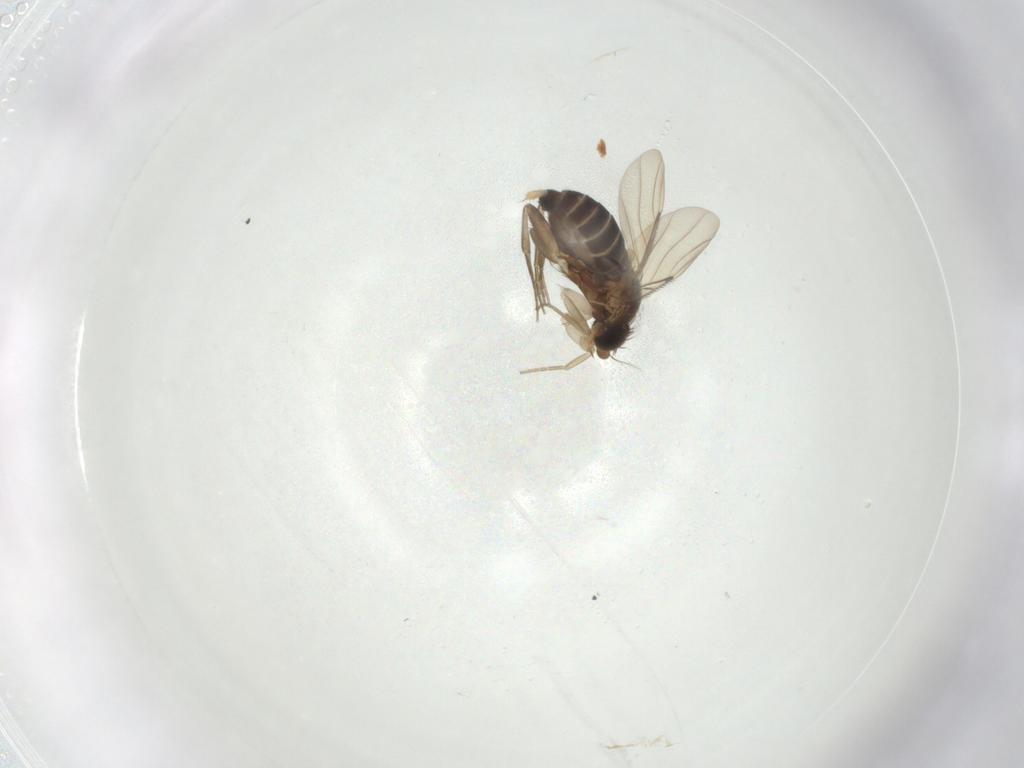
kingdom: Animalia
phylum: Arthropoda
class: Insecta
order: Diptera
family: Phoridae
